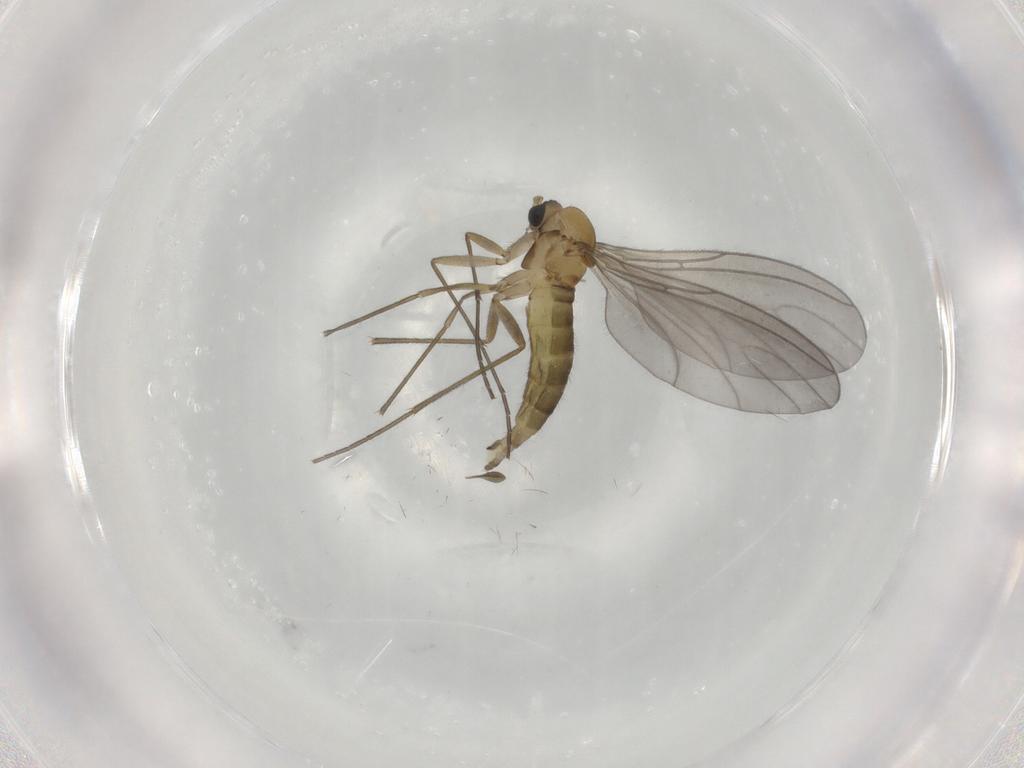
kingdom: Animalia
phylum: Arthropoda
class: Insecta
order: Diptera
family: Sciaridae
